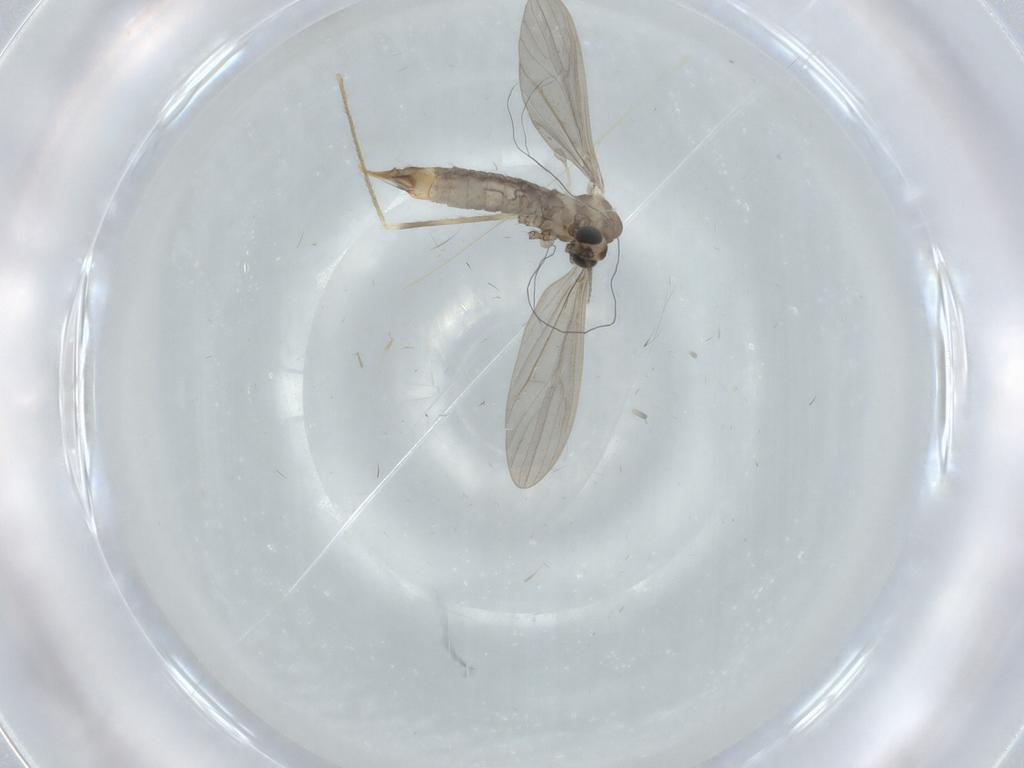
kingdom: Animalia
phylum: Arthropoda
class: Insecta
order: Diptera
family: Limoniidae
